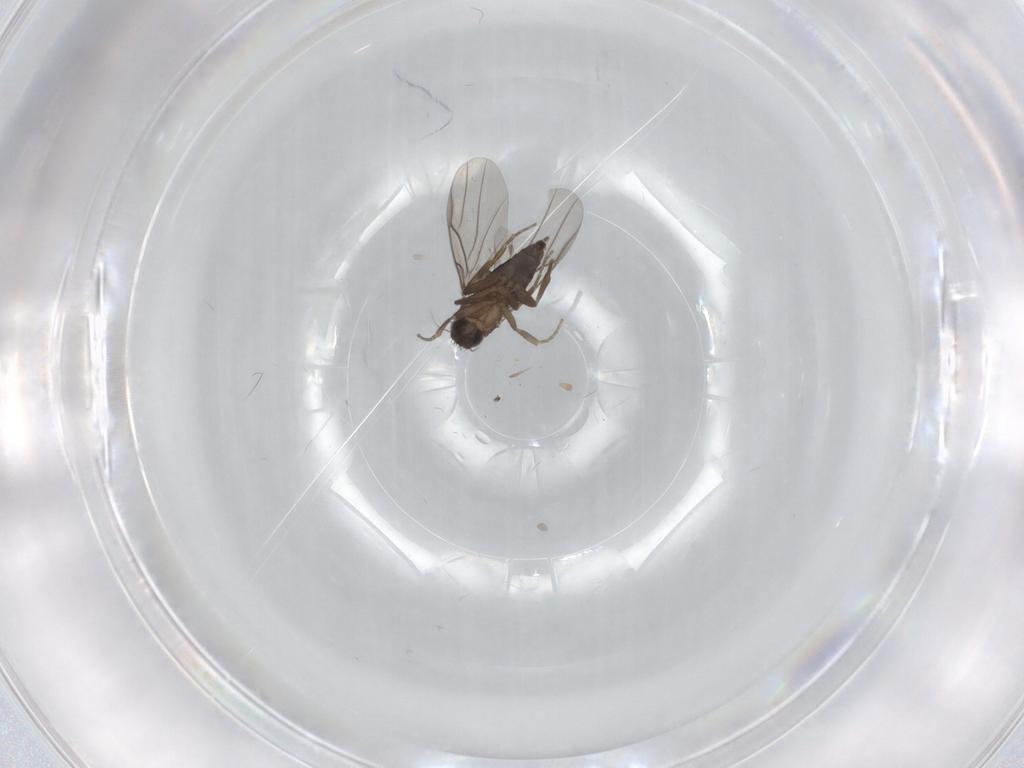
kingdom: Animalia
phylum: Arthropoda
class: Insecta
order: Diptera
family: Phoridae
